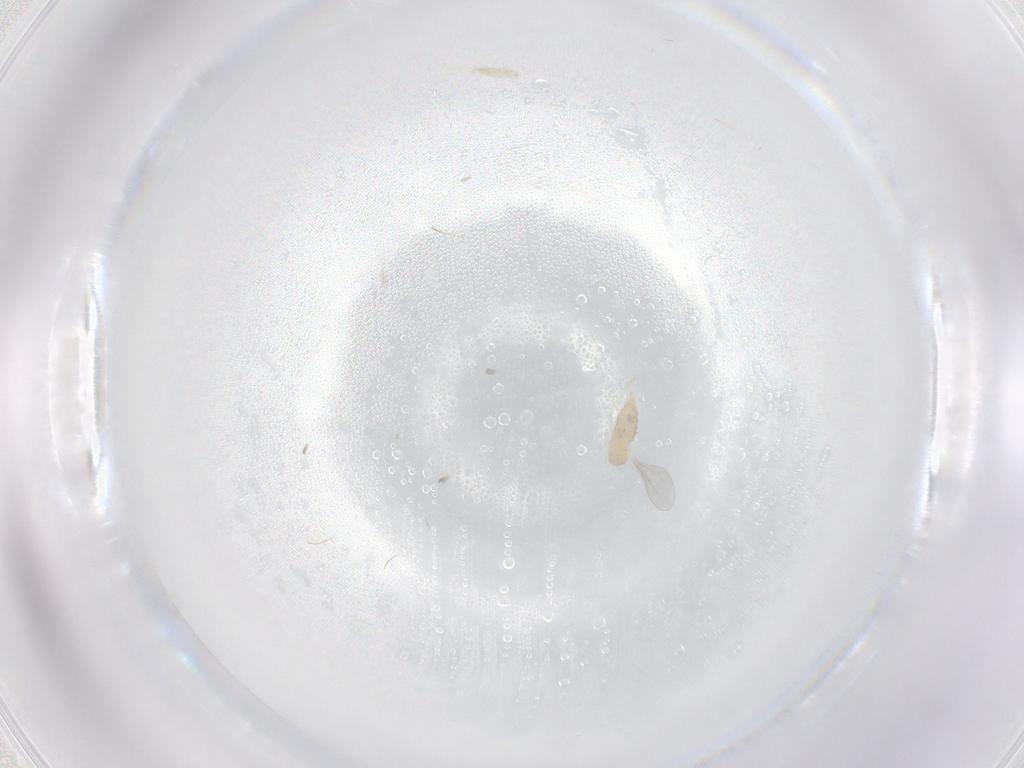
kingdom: Animalia
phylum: Arthropoda
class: Insecta
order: Diptera
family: Cecidomyiidae
